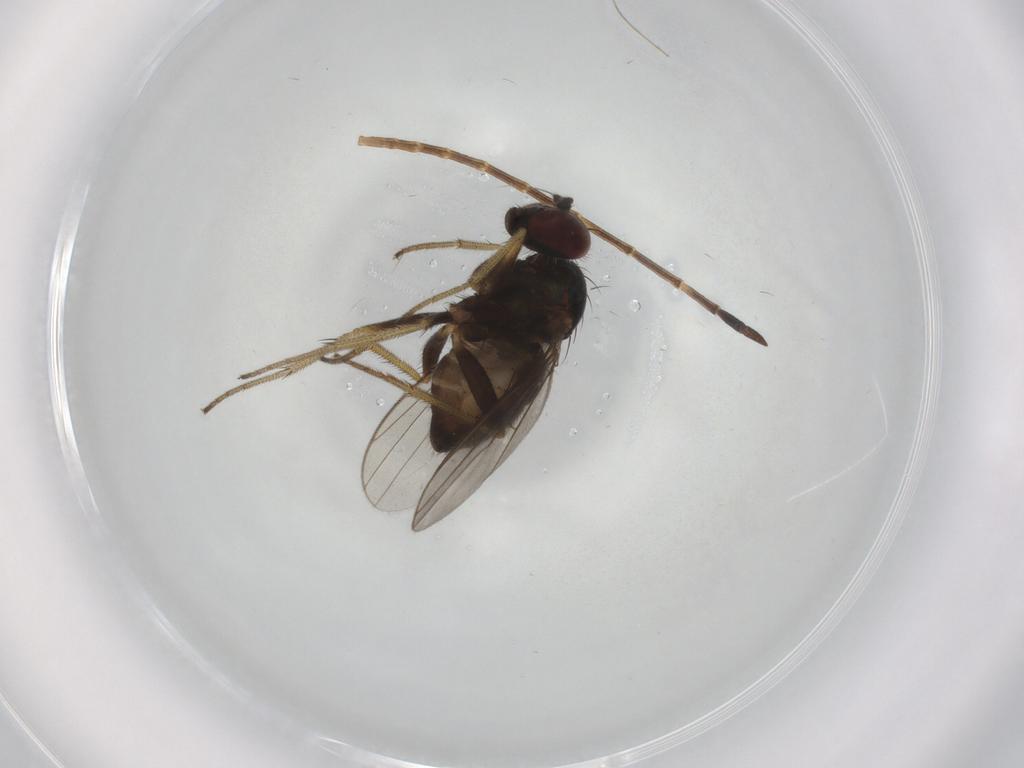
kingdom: Animalia
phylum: Arthropoda
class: Insecta
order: Diptera
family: Dolichopodidae
